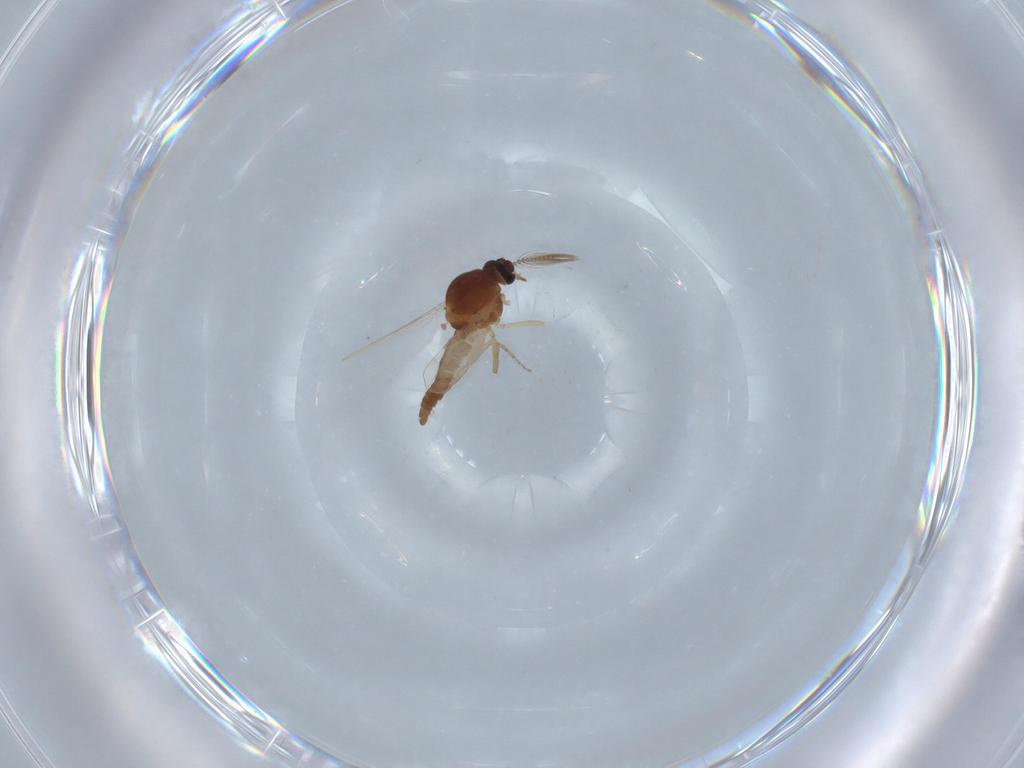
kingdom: Animalia
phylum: Arthropoda
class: Insecta
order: Diptera
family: Ceratopogonidae
